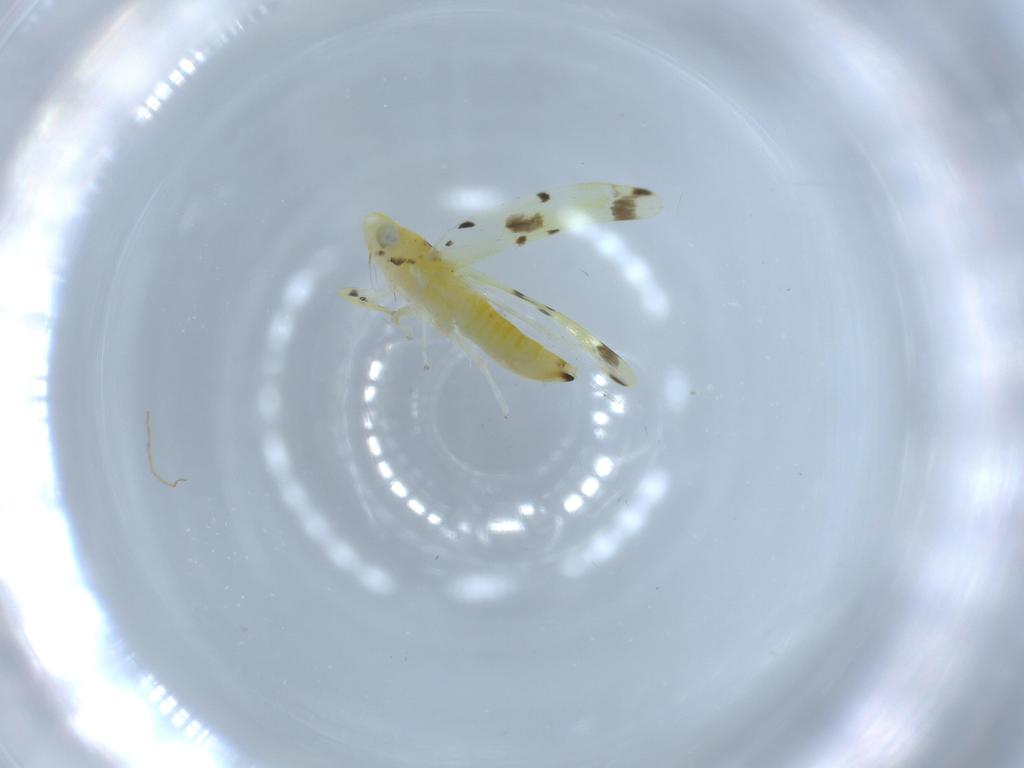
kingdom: Animalia
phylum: Arthropoda
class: Insecta
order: Hemiptera
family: Cicadellidae
